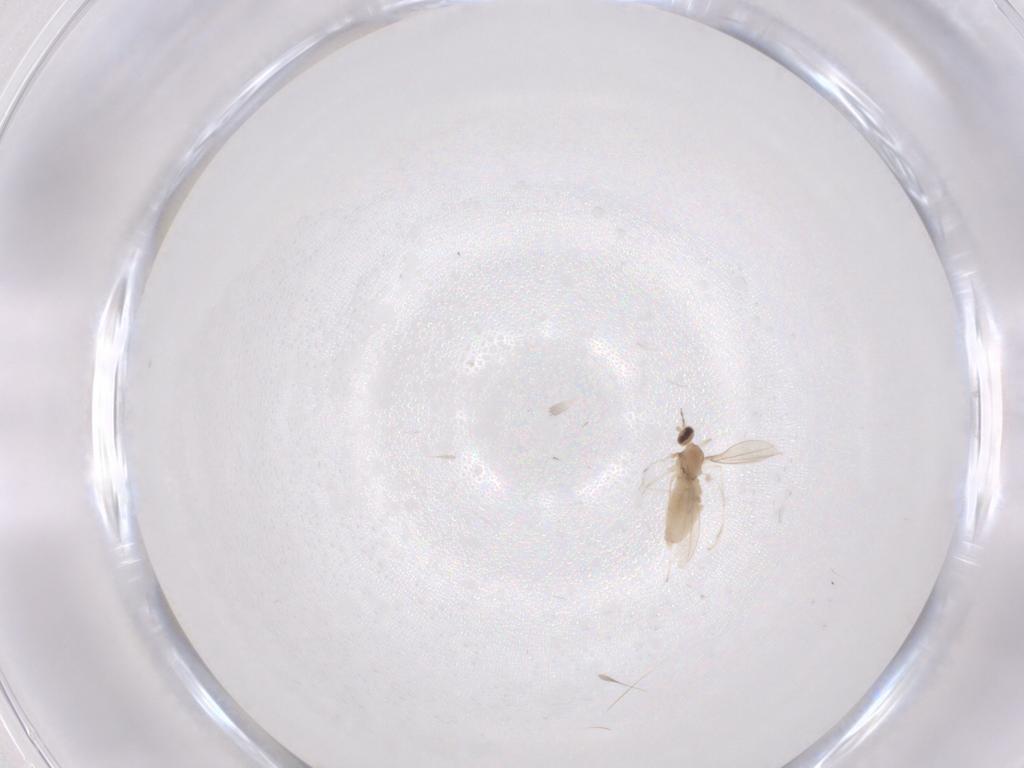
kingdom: Animalia
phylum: Arthropoda
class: Insecta
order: Diptera
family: Cecidomyiidae
